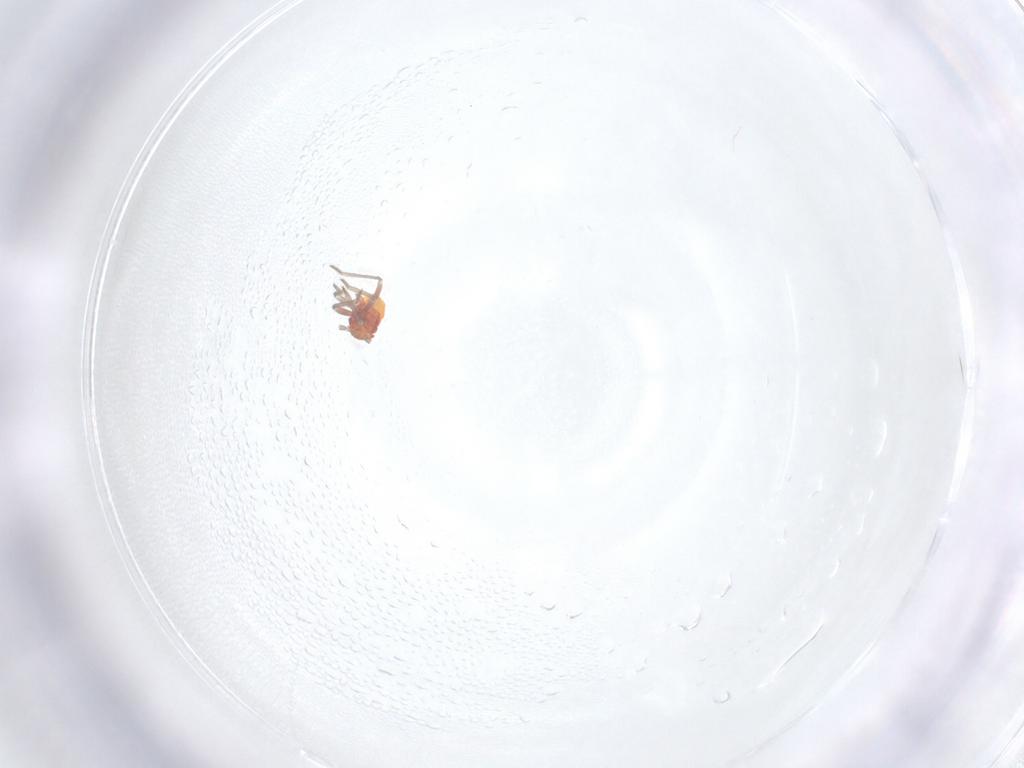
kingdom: Animalia
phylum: Arthropoda
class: Insecta
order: Hemiptera
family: Schizopteridae
